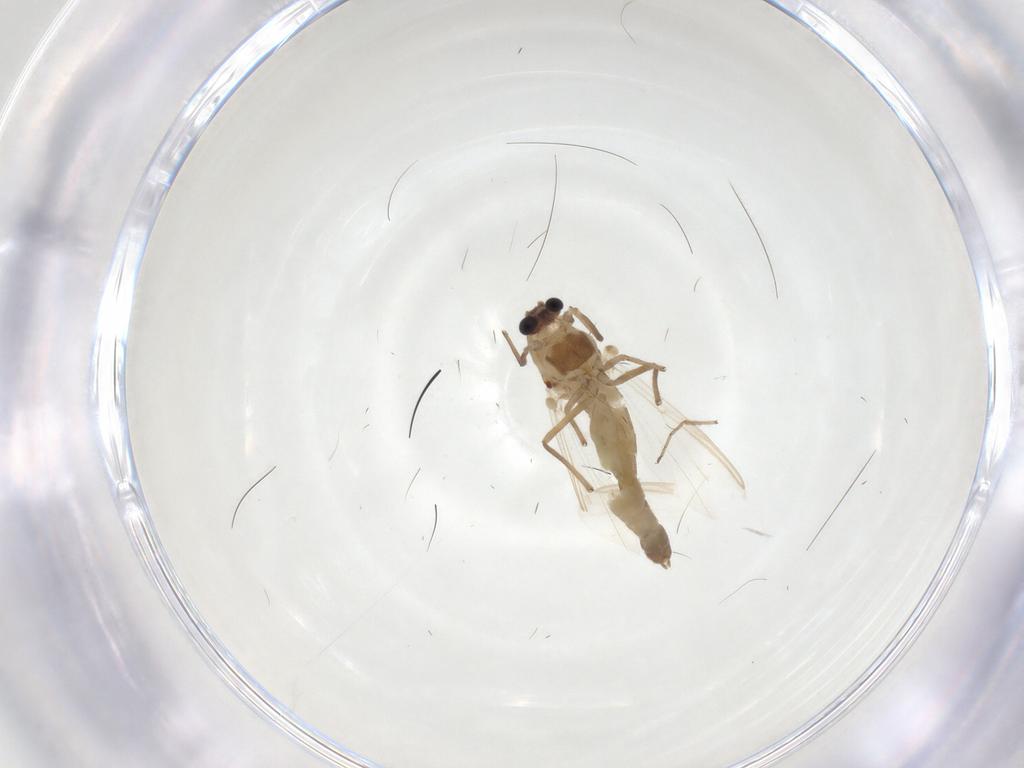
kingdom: Animalia
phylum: Arthropoda
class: Insecta
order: Diptera
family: Chironomidae
